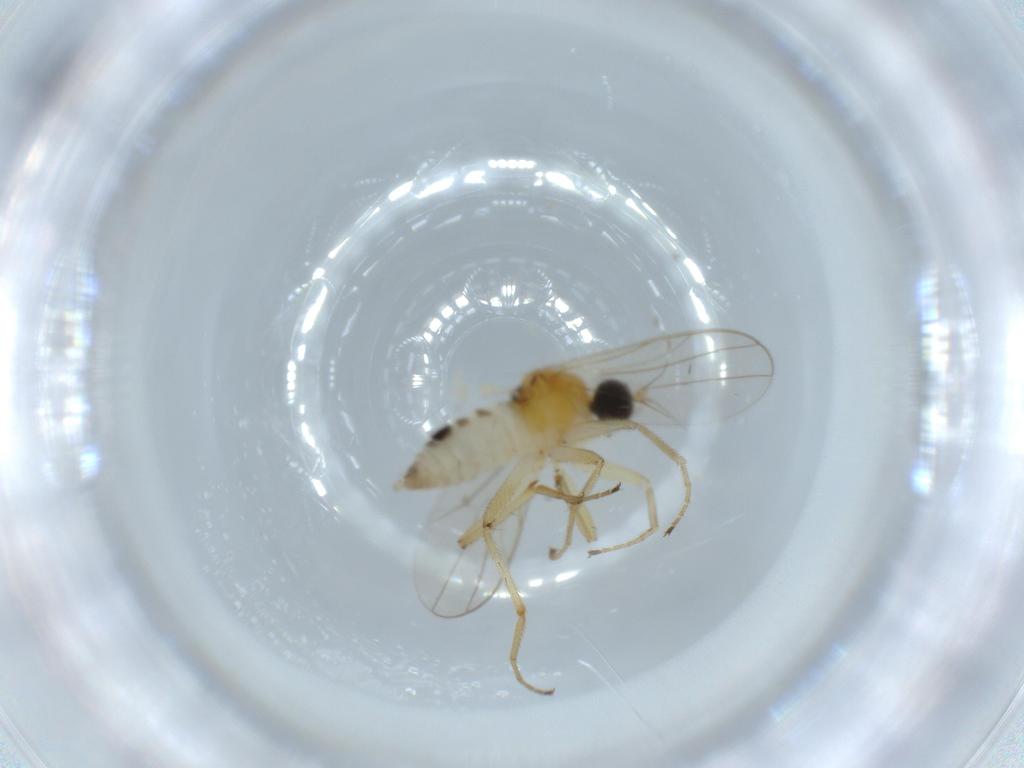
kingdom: Animalia
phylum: Arthropoda
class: Insecta
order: Diptera
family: Hybotidae
